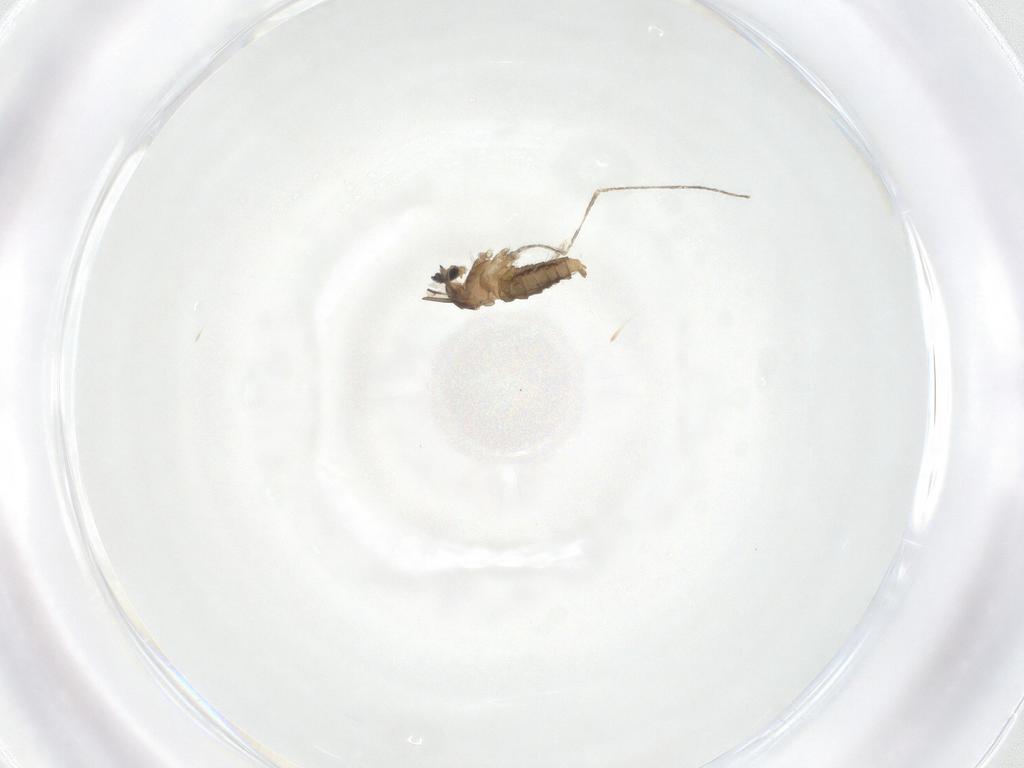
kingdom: Animalia
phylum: Arthropoda
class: Insecta
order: Diptera
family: Cecidomyiidae
